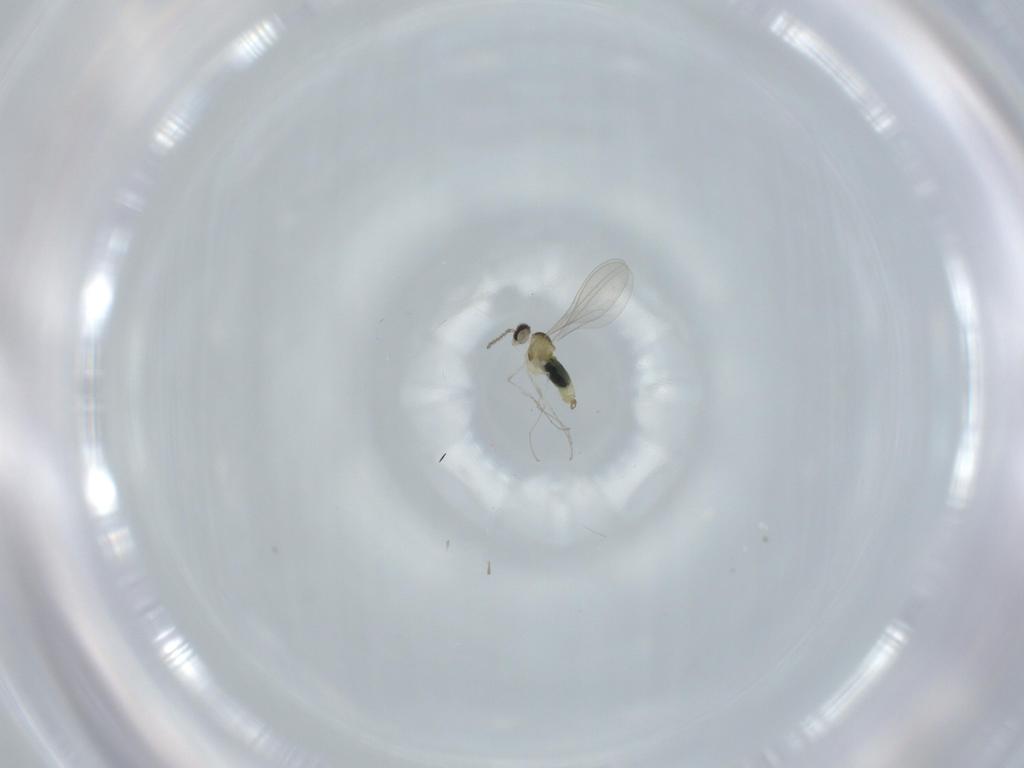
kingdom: Animalia
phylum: Arthropoda
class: Insecta
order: Diptera
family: Cecidomyiidae
